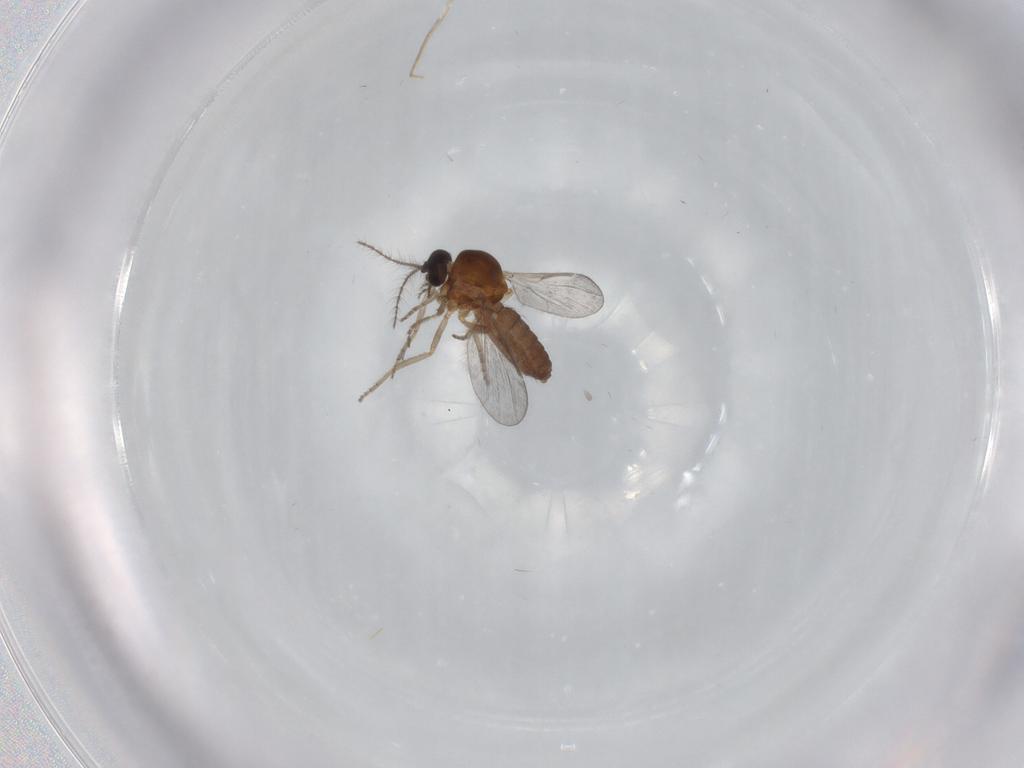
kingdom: Animalia
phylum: Arthropoda
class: Insecta
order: Diptera
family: Ceratopogonidae
